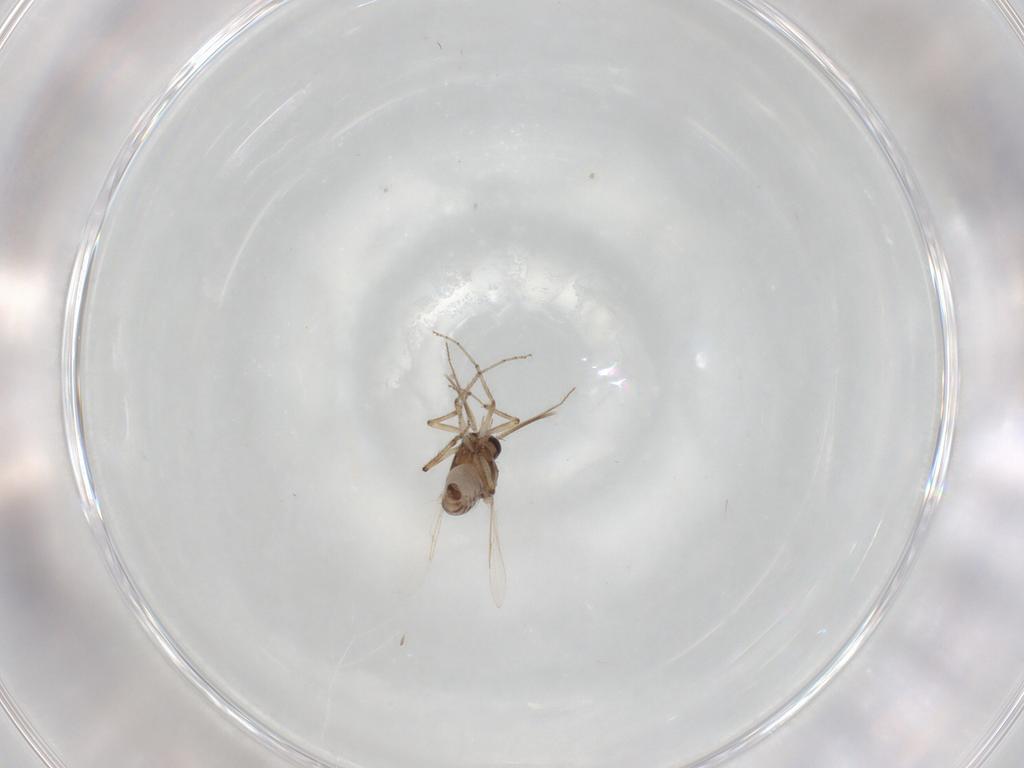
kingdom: Animalia
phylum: Arthropoda
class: Insecta
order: Diptera
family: Ceratopogonidae
